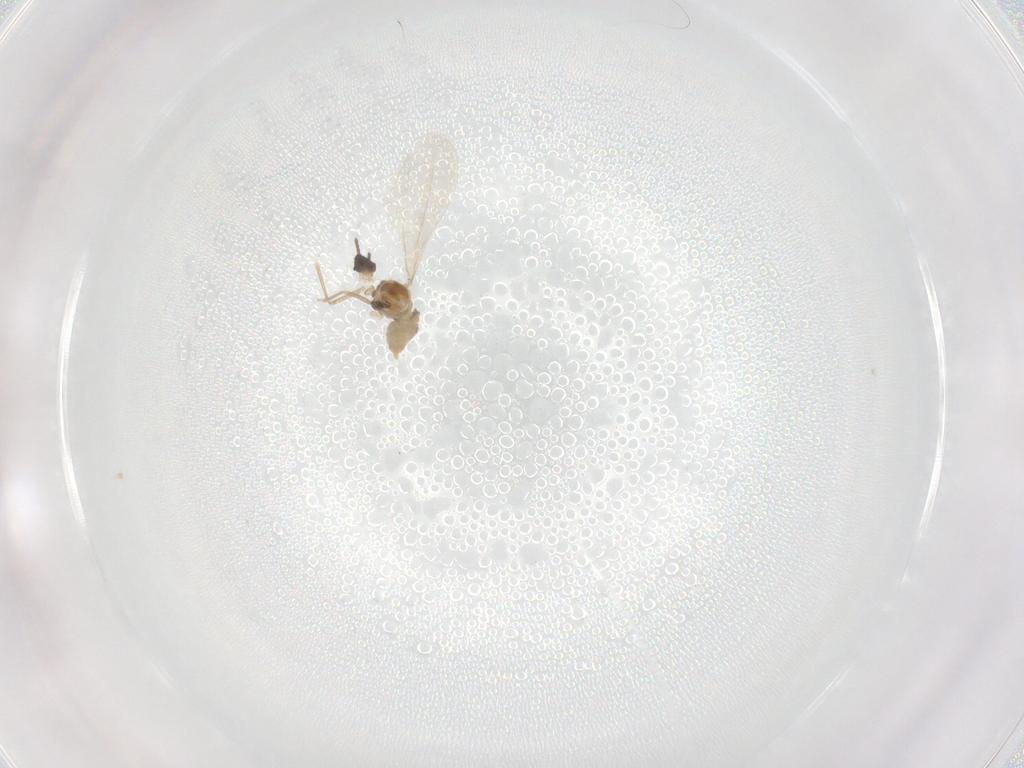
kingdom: Animalia
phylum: Arthropoda
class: Insecta
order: Diptera
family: Cecidomyiidae
